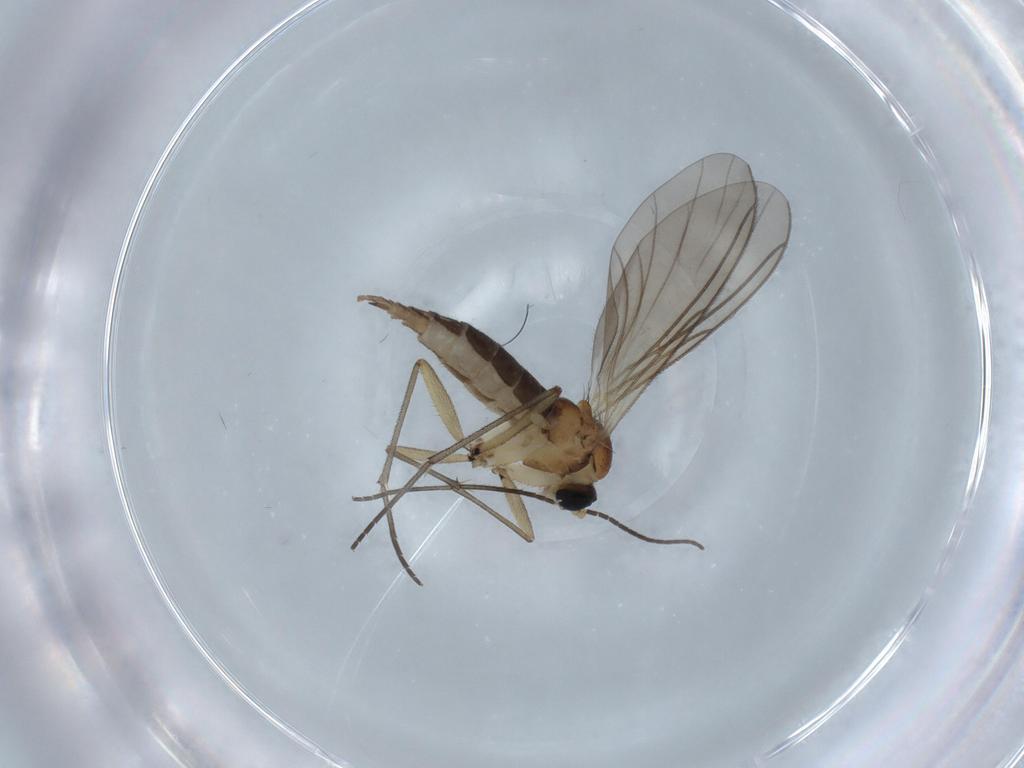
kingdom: Animalia
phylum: Arthropoda
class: Insecta
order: Diptera
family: Sciaridae
